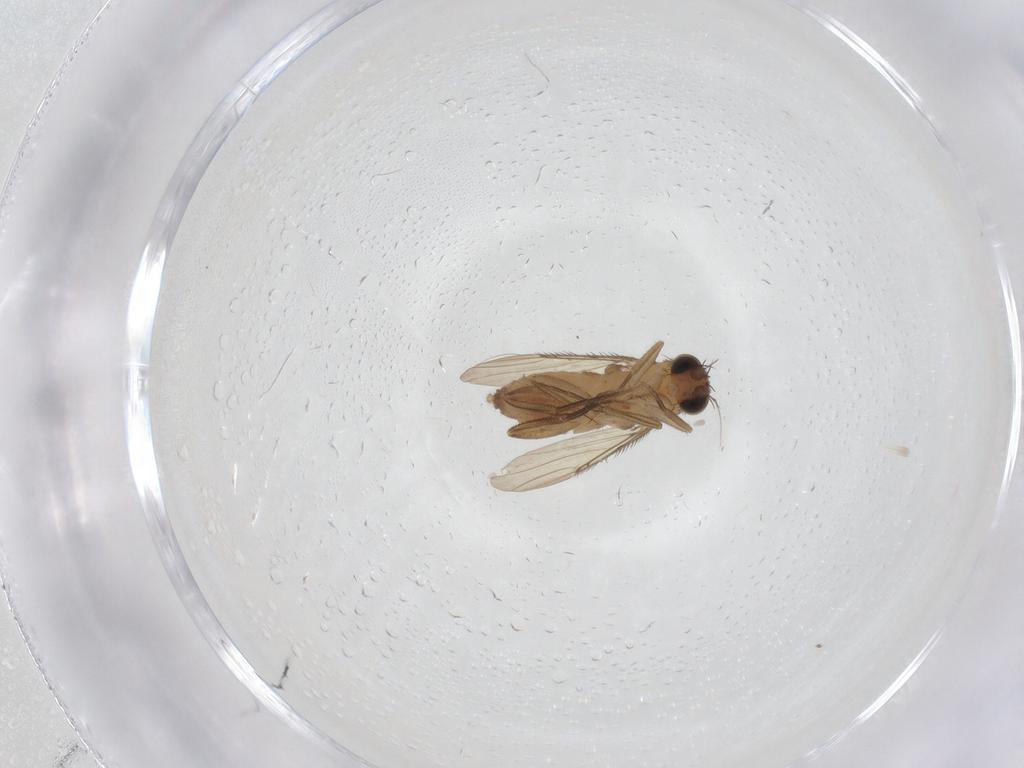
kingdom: Animalia
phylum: Arthropoda
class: Insecta
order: Diptera
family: Phoridae
